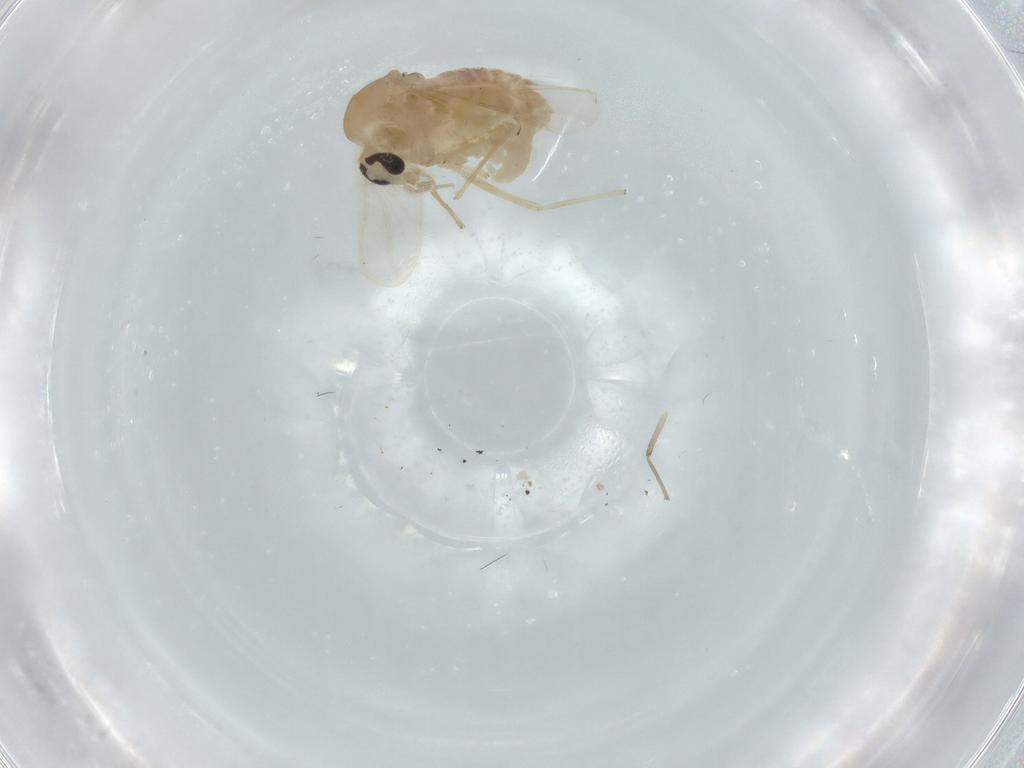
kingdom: Animalia
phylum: Arthropoda
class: Insecta
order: Diptera
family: Chironomidae
